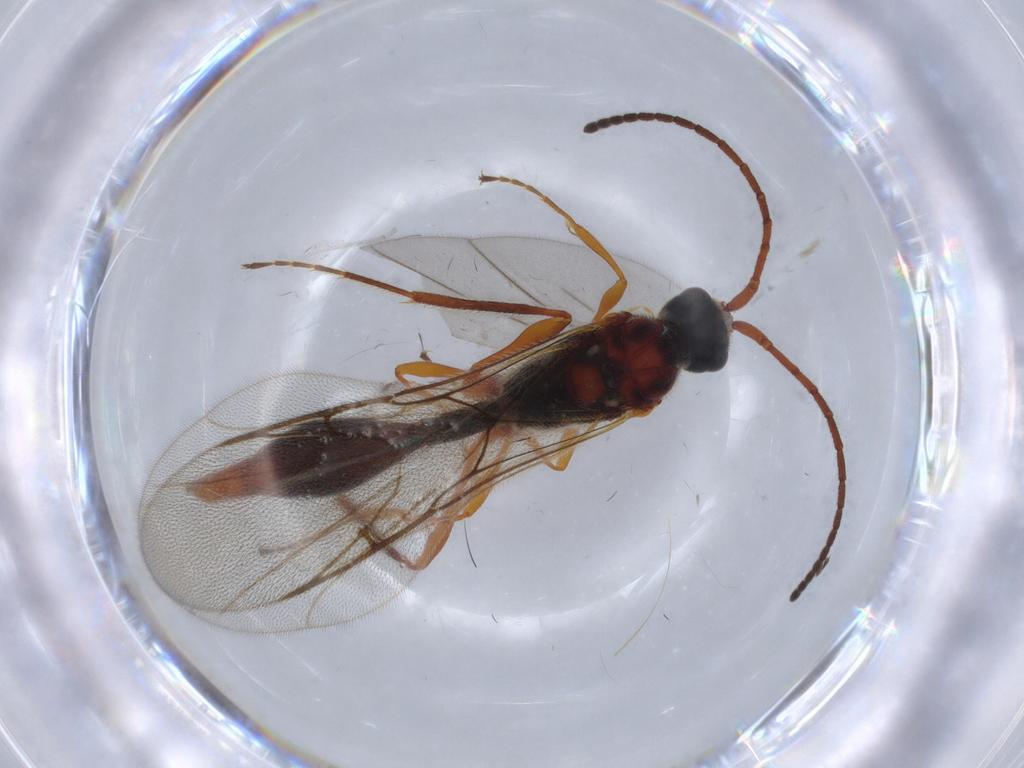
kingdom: Animalia
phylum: Arthropoda
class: Insecta
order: Hymenoptera
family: Diapriidae
